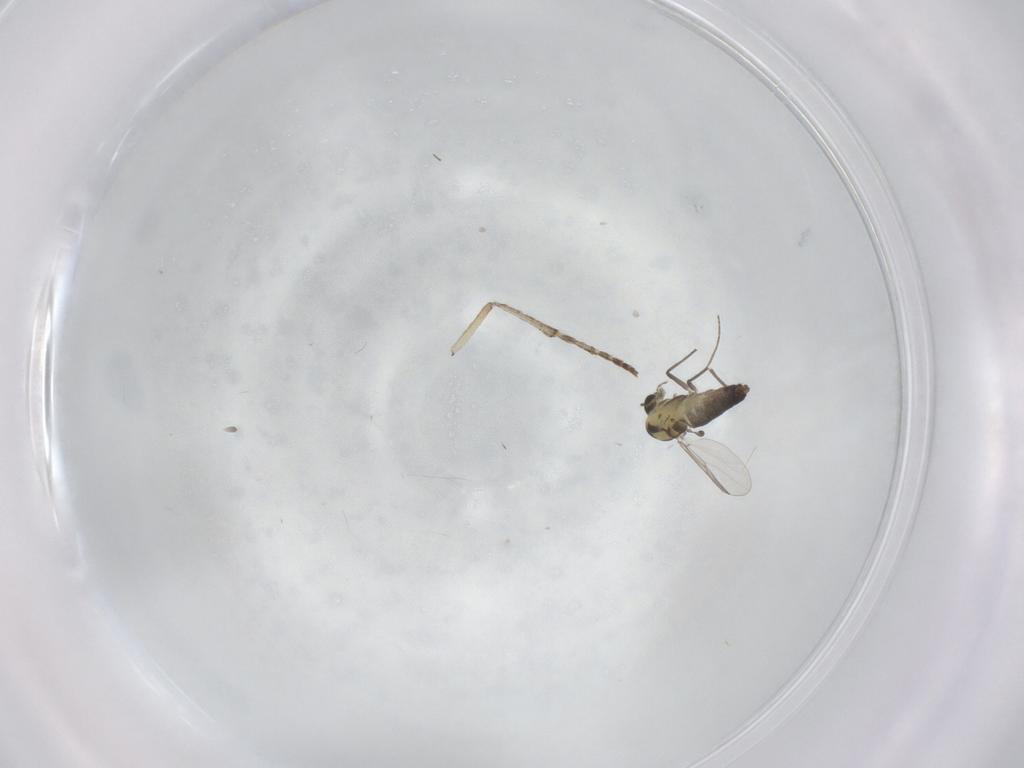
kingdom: Animalia
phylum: Arthropoda
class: Insecta
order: Diptera
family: Chironomidae
